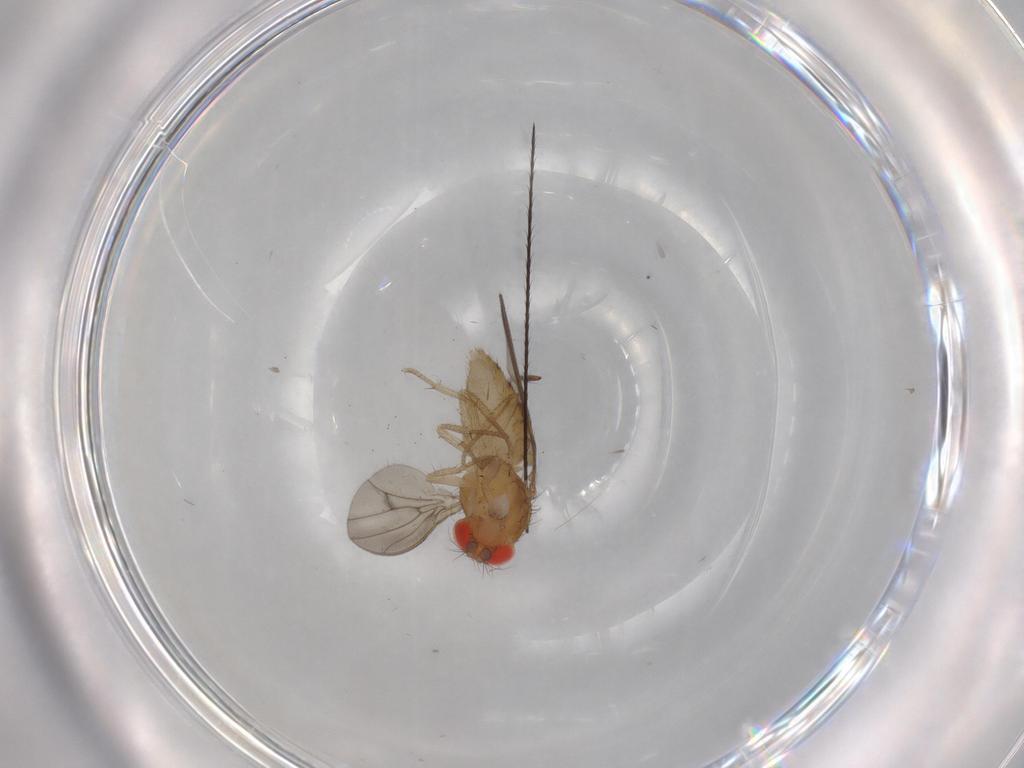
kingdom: Animalia
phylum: Arthropoda
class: Insecta
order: Diptera
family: Drosophilidae
